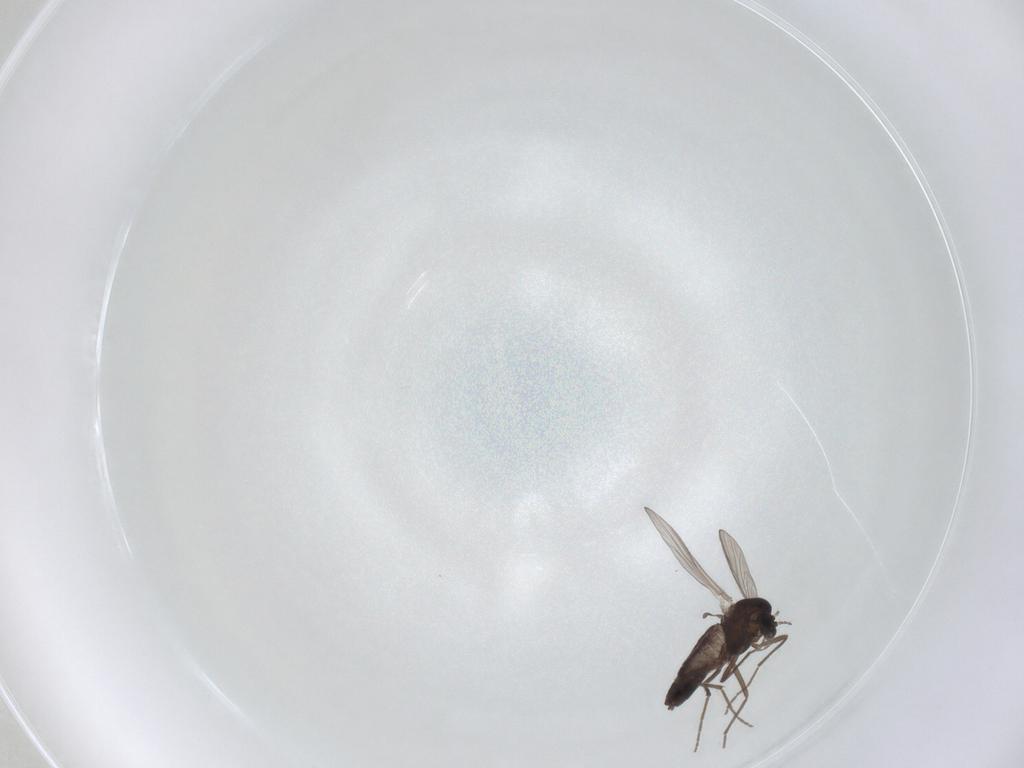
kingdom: Animalia
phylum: Arthropoda
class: Insecta
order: Diptera
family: Chironomidae
